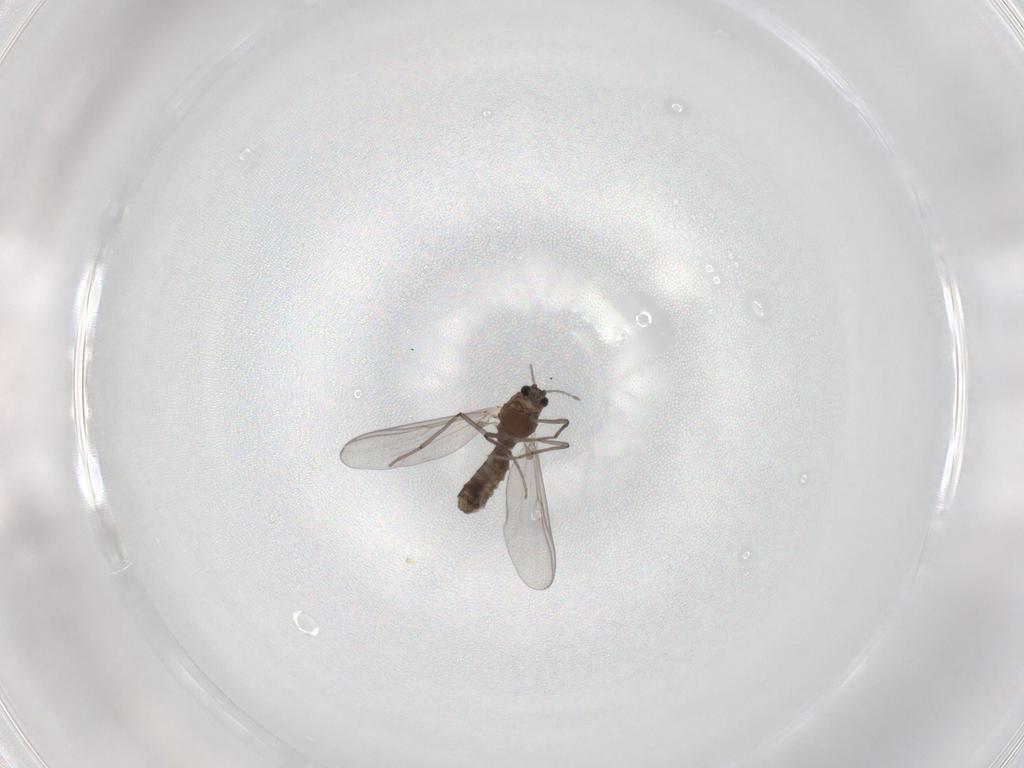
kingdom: Animalia
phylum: Arthropoda
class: Insecta
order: Diptera
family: Chironomidae
